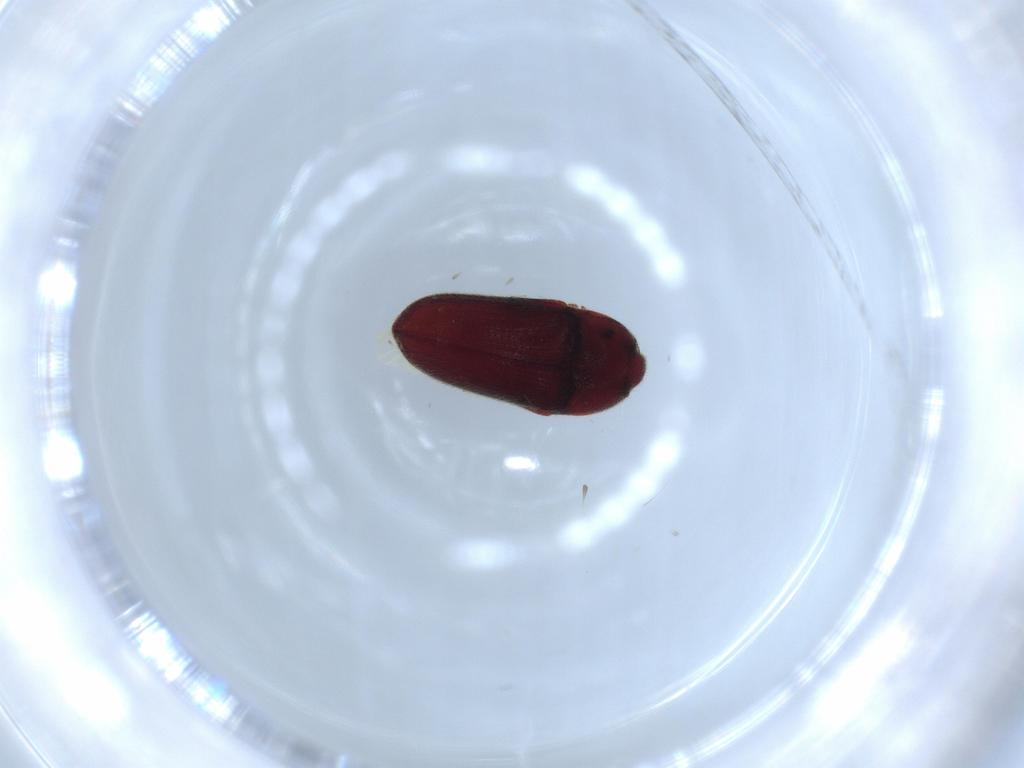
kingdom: Animalia
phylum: Arthropoda
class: Insecta
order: Coleoptera
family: Throscidae
